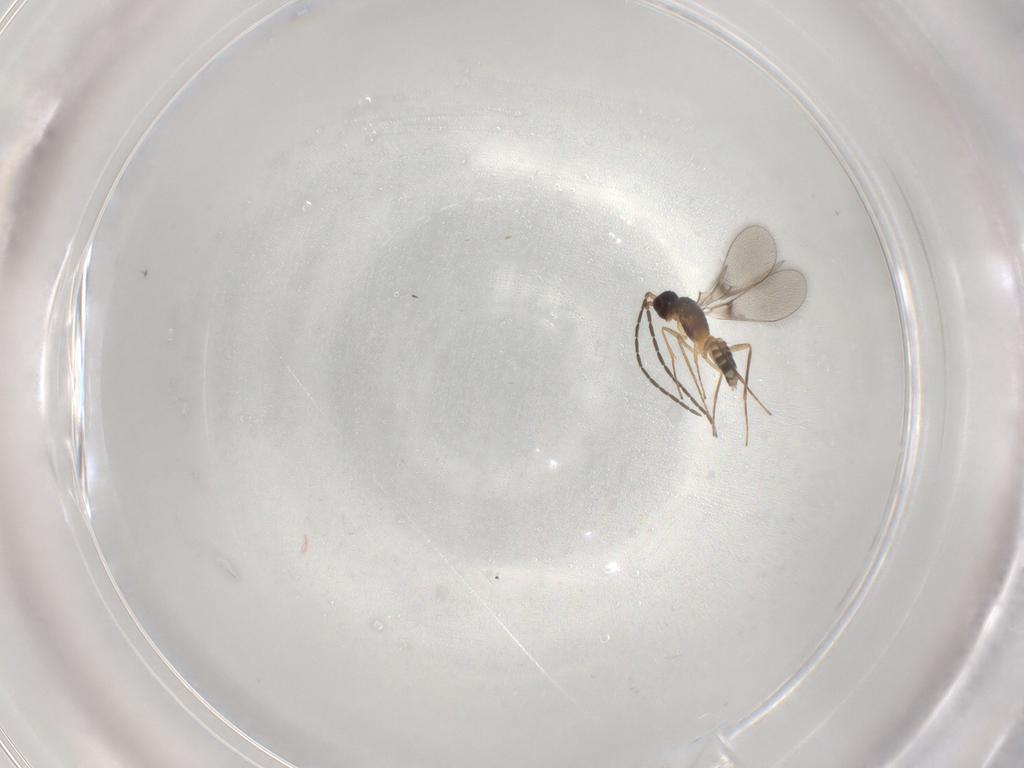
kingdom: Animalia
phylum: Arthropoda
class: Insecta
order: Hymenoptera
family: Mymaridae
